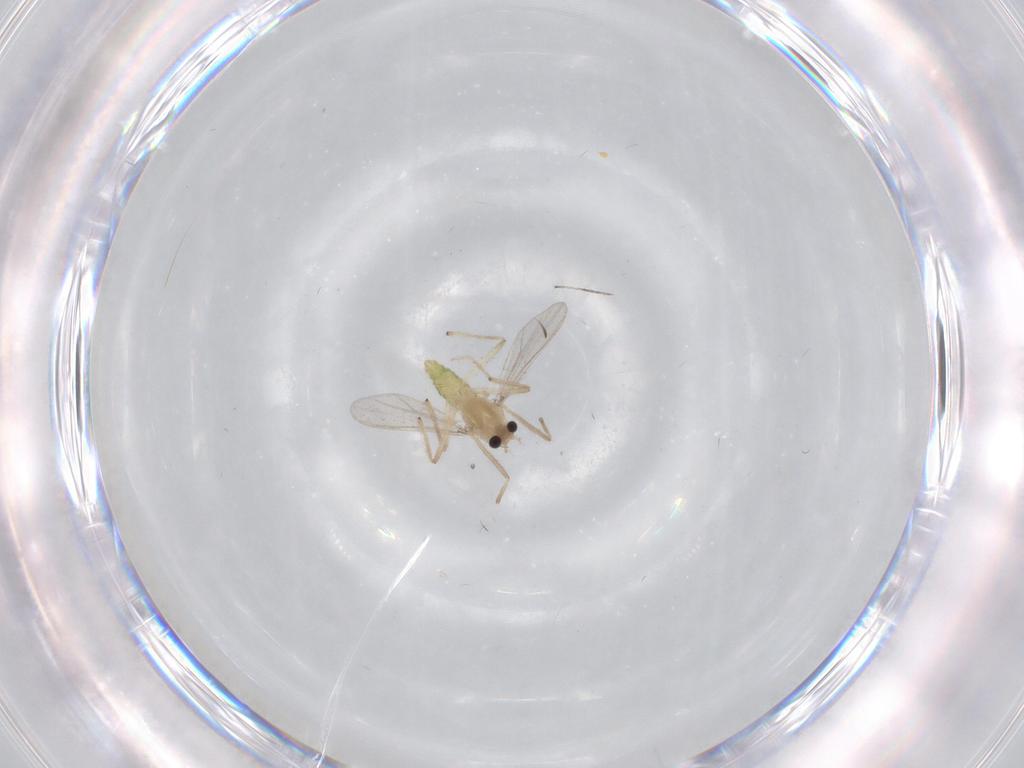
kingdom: Animalia
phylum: Arthropoda
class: Insecta
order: Diptera
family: Chironomidae
